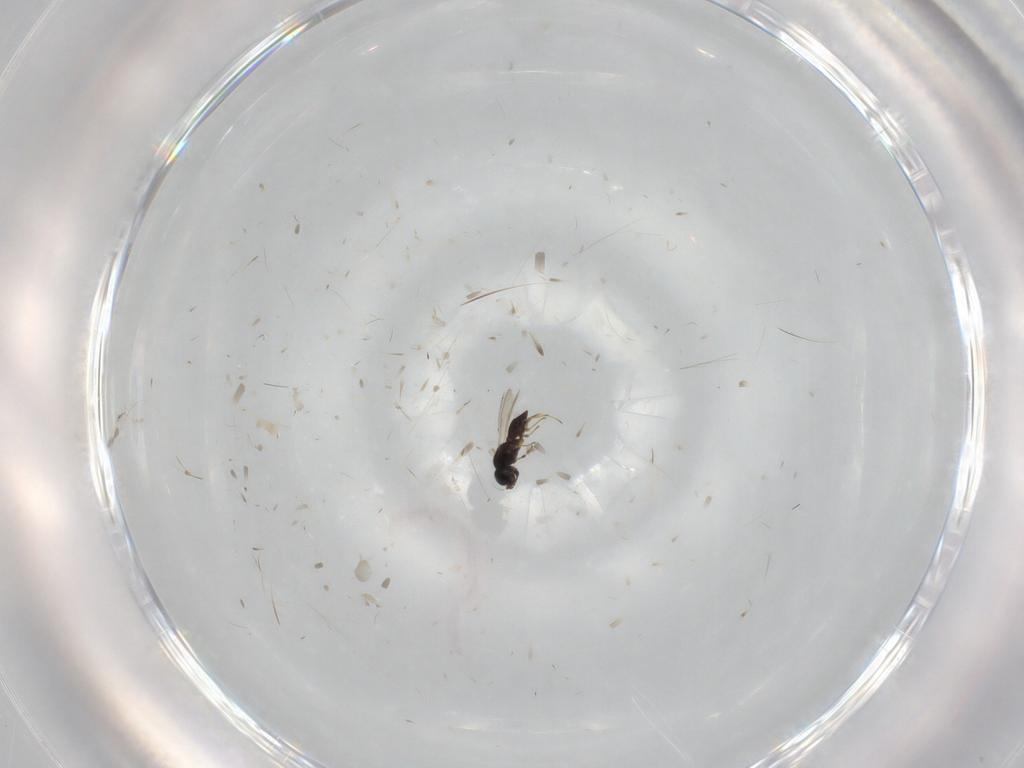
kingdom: Animalia
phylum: Arthropoda
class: Insecta
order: Hymenoptera
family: Scelionidae
